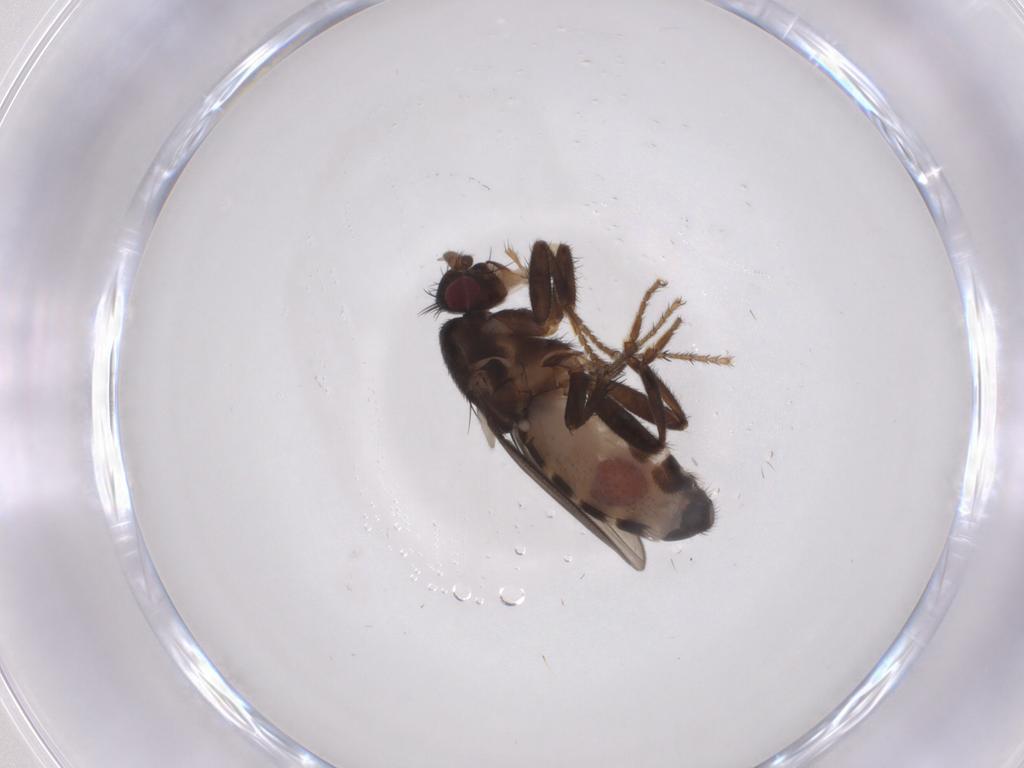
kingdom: Animalia
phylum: Arthropoda
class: Insecta
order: Diptera
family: Sphaeroceridae
